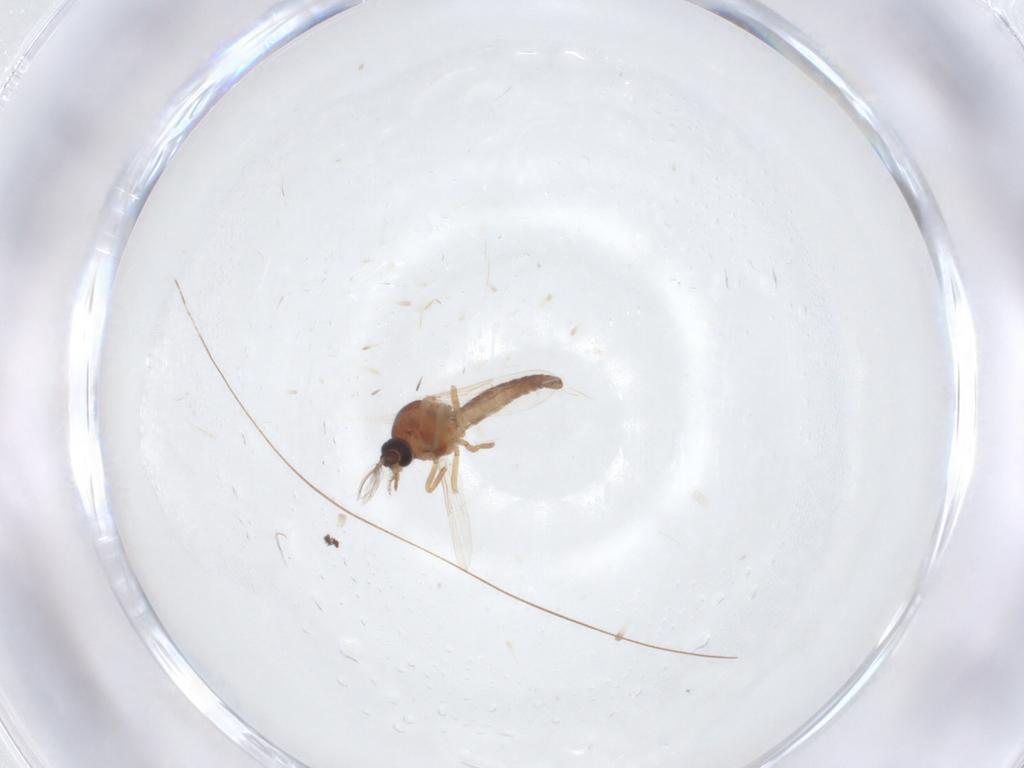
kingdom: Animalia
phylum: Arthropoda
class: Insecta
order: Diptera
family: Ceratopogonidae
